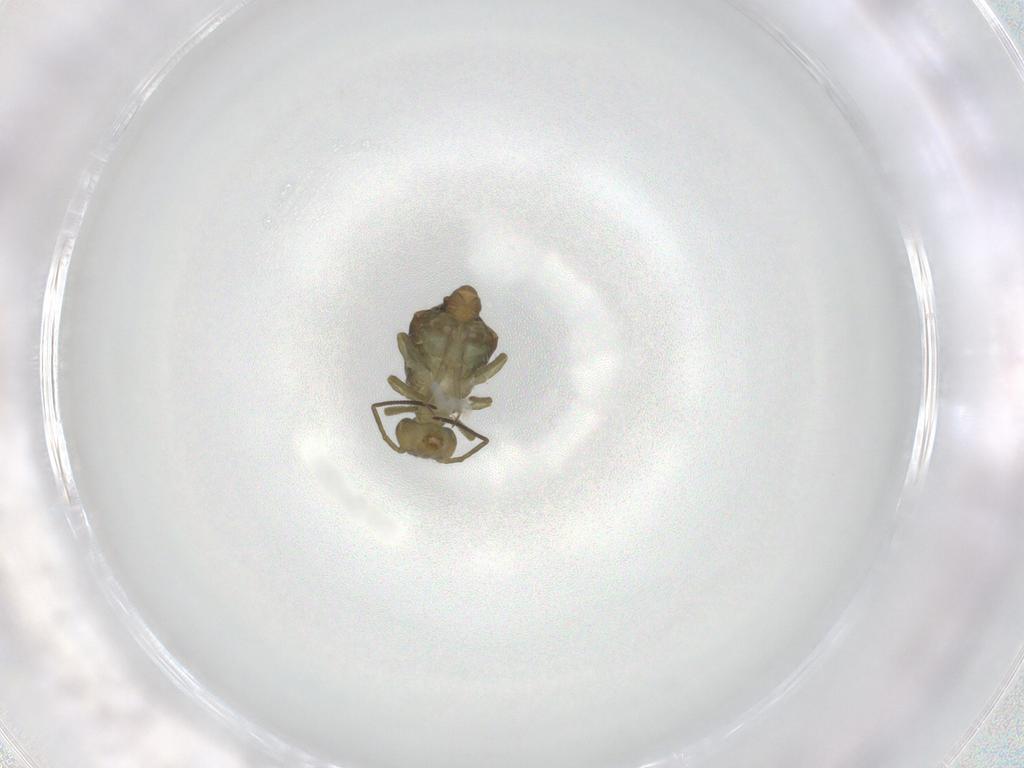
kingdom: Animalia
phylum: Arthropoda
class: Collembola
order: Symphypleona
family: Sminthuridae
